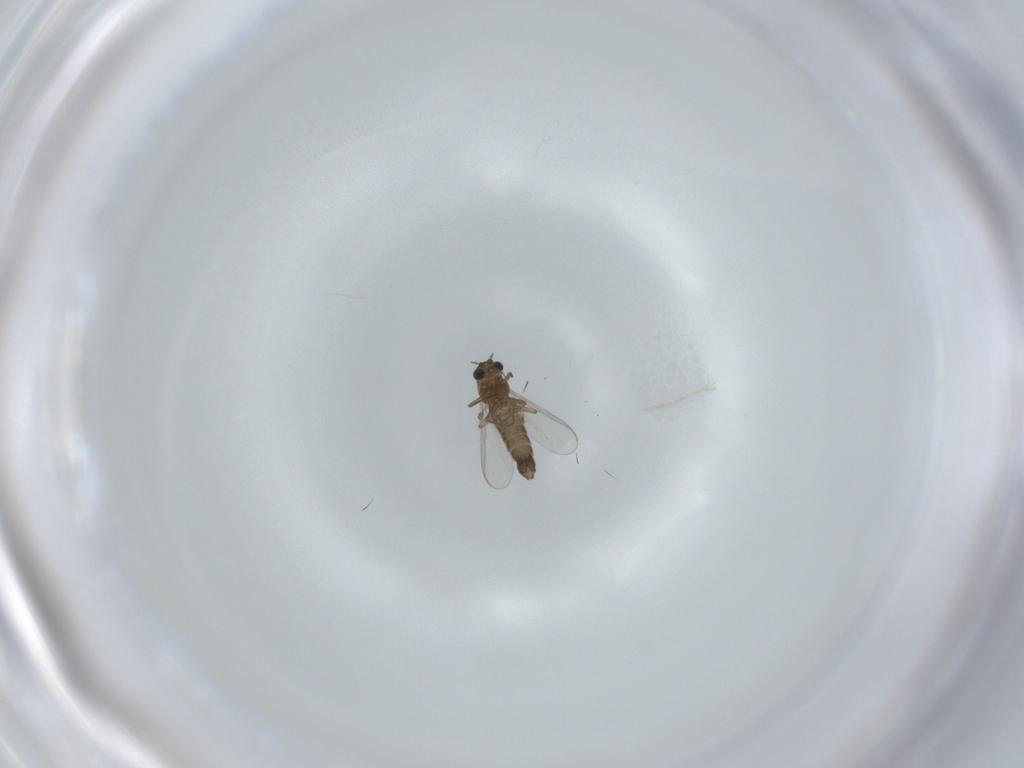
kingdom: Animalia
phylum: Arthropoda
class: Insecta
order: Diptera
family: Chironomidae
